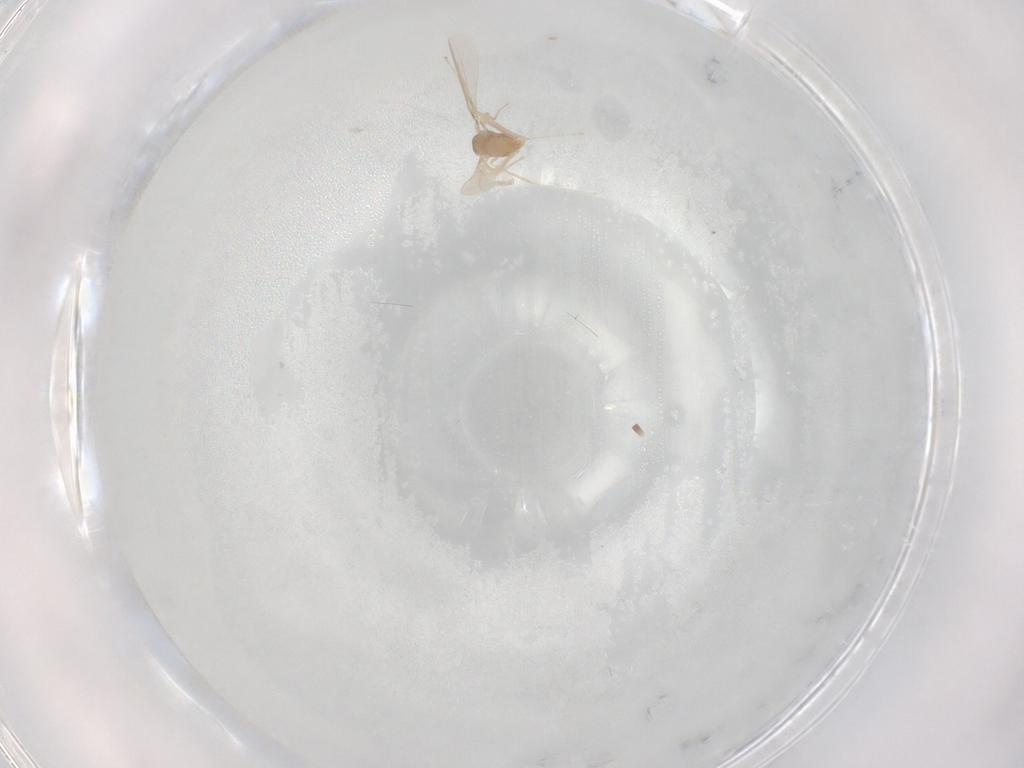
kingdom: Animalia
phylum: Arthropoda
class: Insecta
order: Diptera
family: Cecidomyiidae
